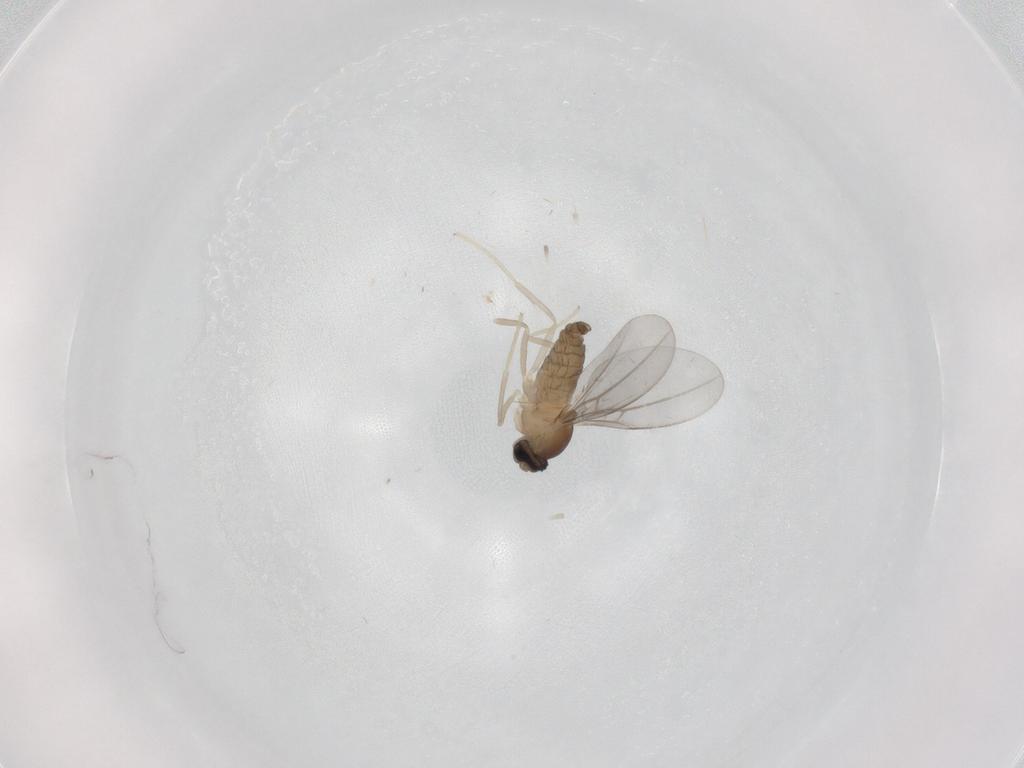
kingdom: Animalia
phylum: Arthropoda
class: Insecta
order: Diptera
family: Cecidomyiidae
